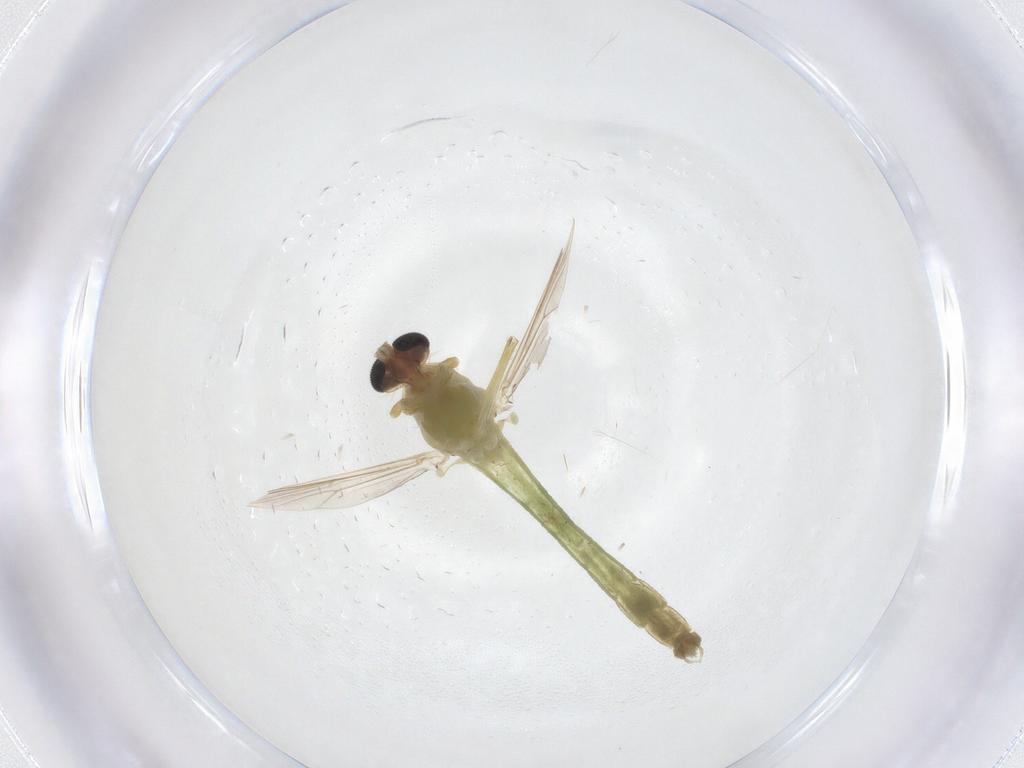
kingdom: Animalia
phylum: Arthropoda
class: Insecta
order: Diptera
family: Chironomidae
